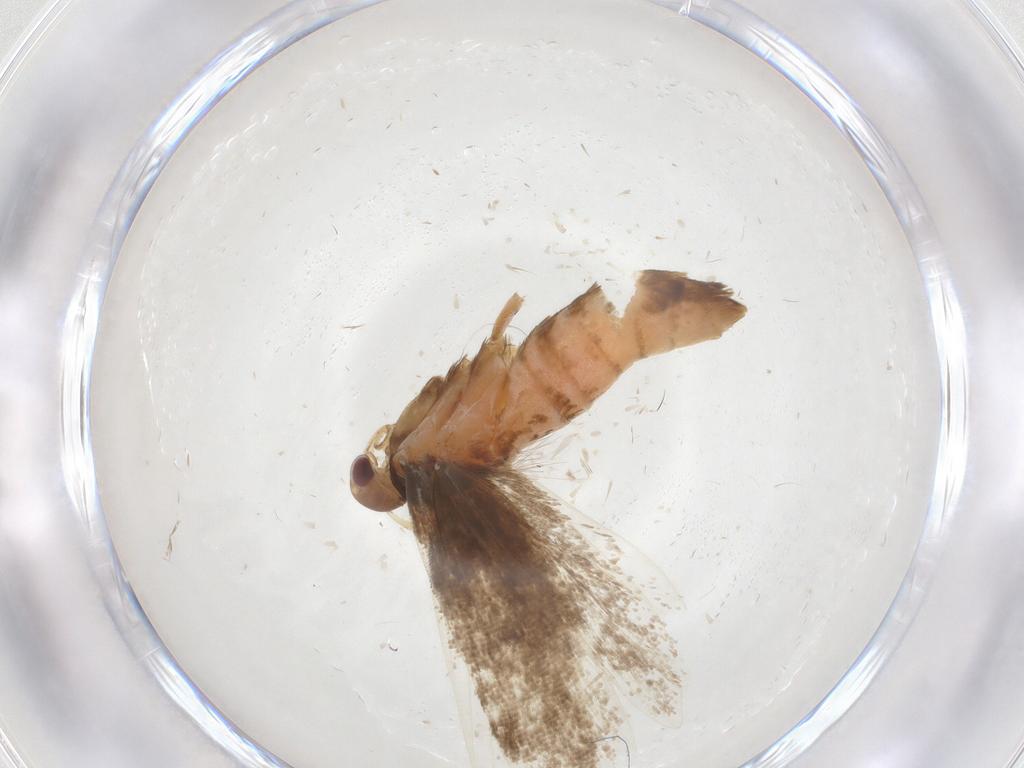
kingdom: Animalia
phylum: Arthropoda
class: Insecta
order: Lepidoptera
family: Gelechiidae
